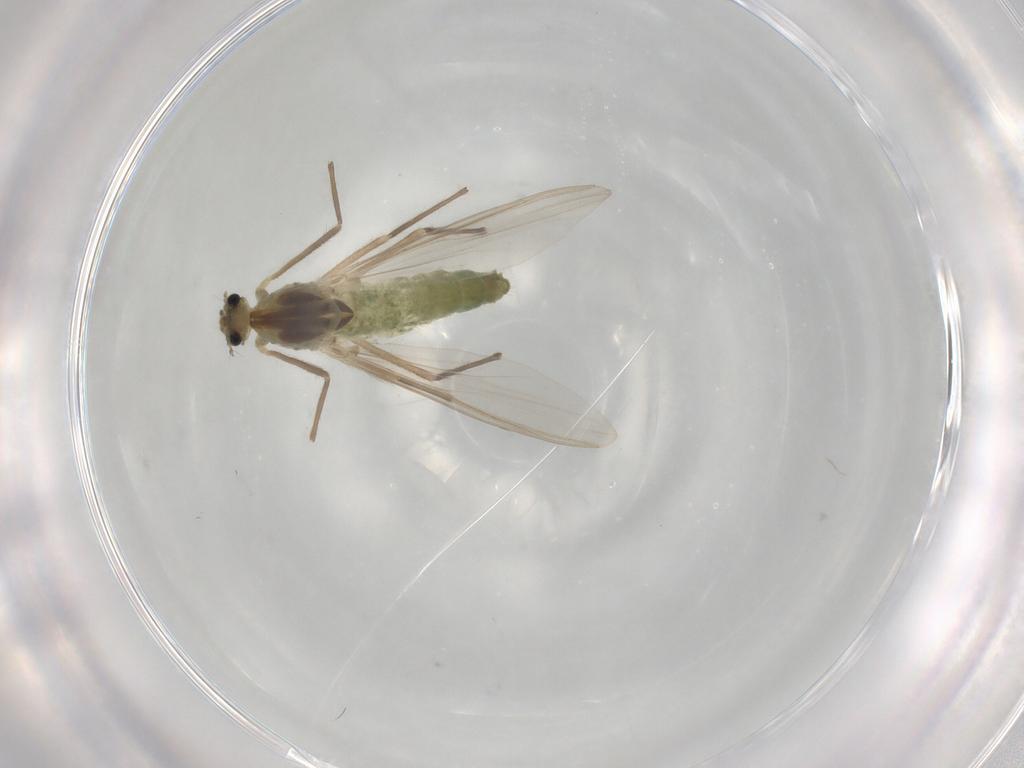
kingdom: Animalia
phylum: Arthropoda
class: Insecta
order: Diptera
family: Chironomidae
